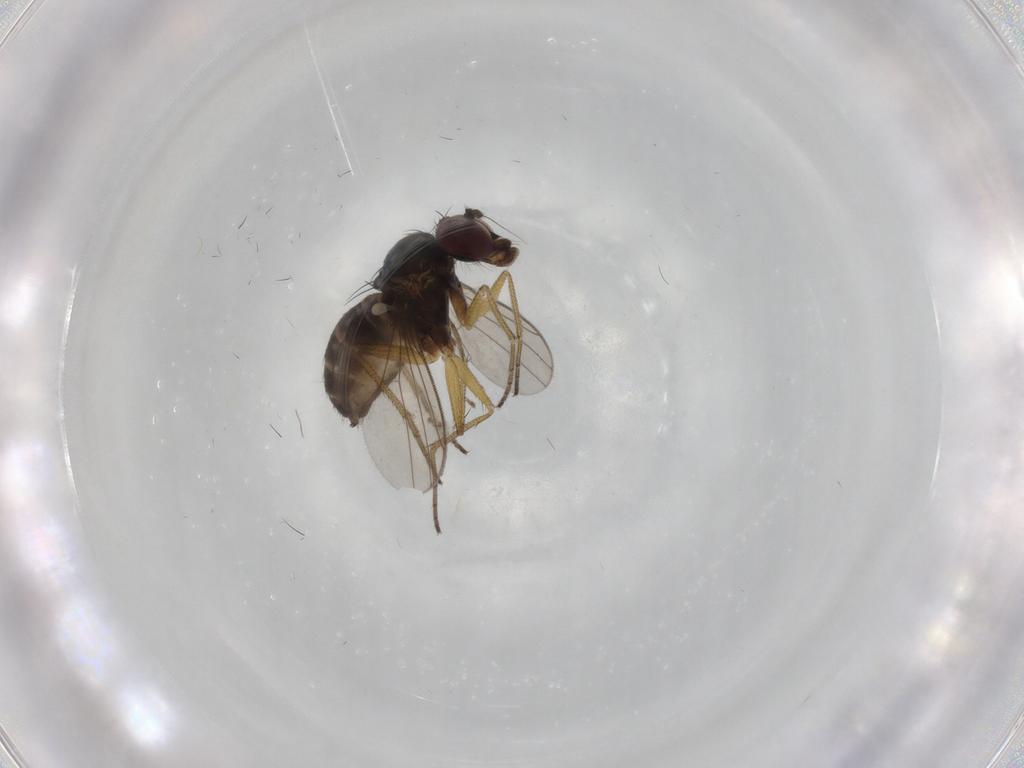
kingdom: Animalia
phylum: Arthropoda
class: Insecta
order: Diptera
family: Dolichopodidae
